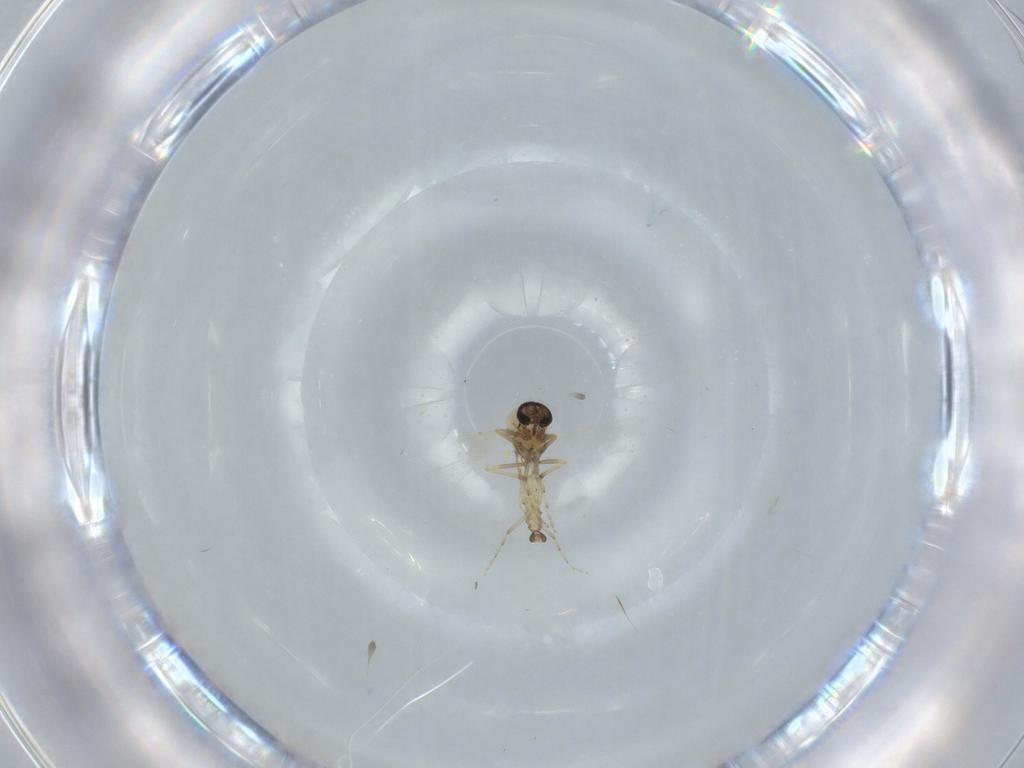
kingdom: Animalia
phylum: Arthropoda
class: Insecta
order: Diptera
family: Ceratopogonidae
